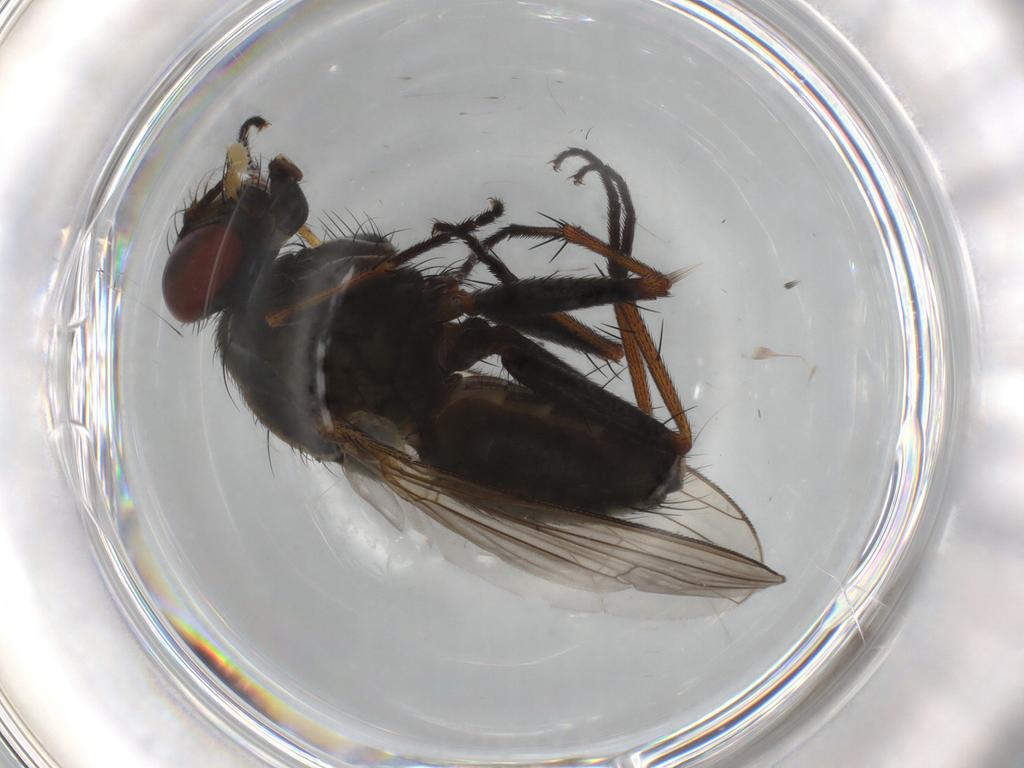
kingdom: Animalia
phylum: Arthropoda
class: Insecta
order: Diptera
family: Muscidae
